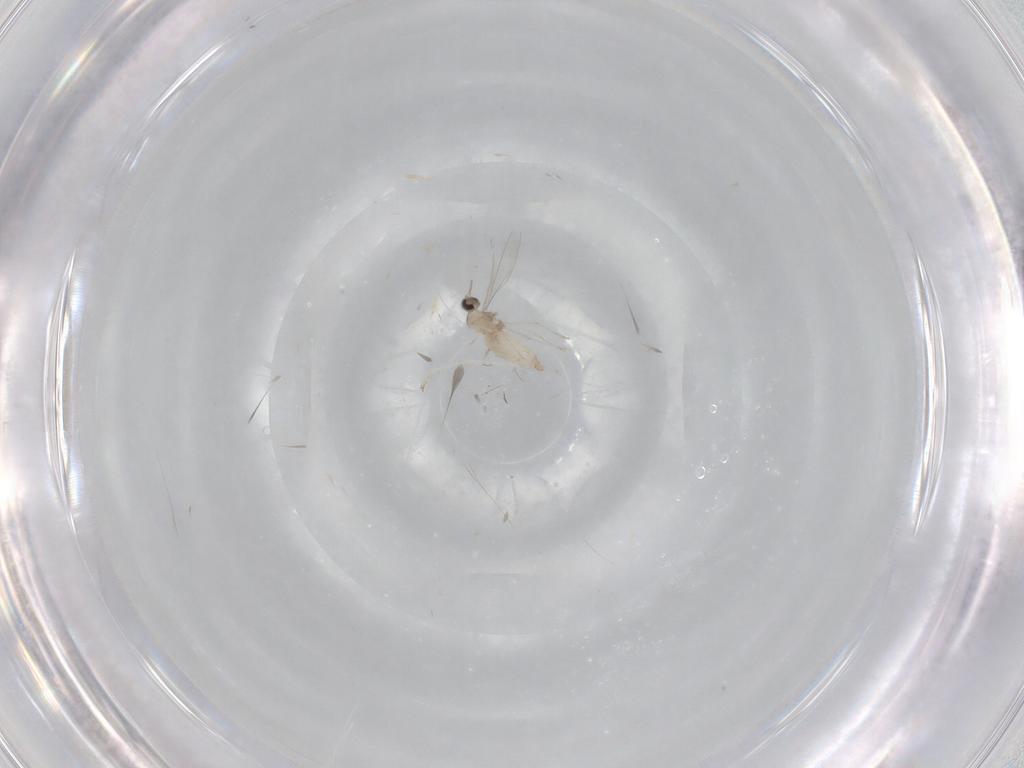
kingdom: Animalia
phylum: Arthropoda
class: Insecta
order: Diptera
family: Cecidomyiidae
